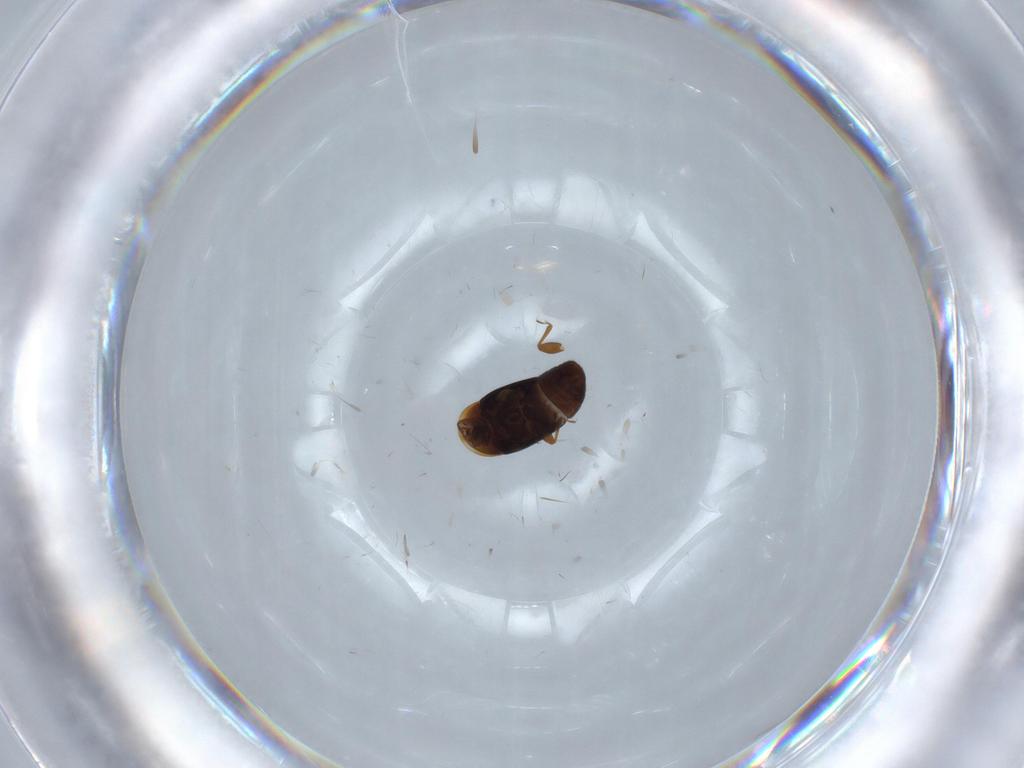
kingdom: Animalia
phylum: Arthropoda
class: Insecta
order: Coleoptera
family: Corylophidae
